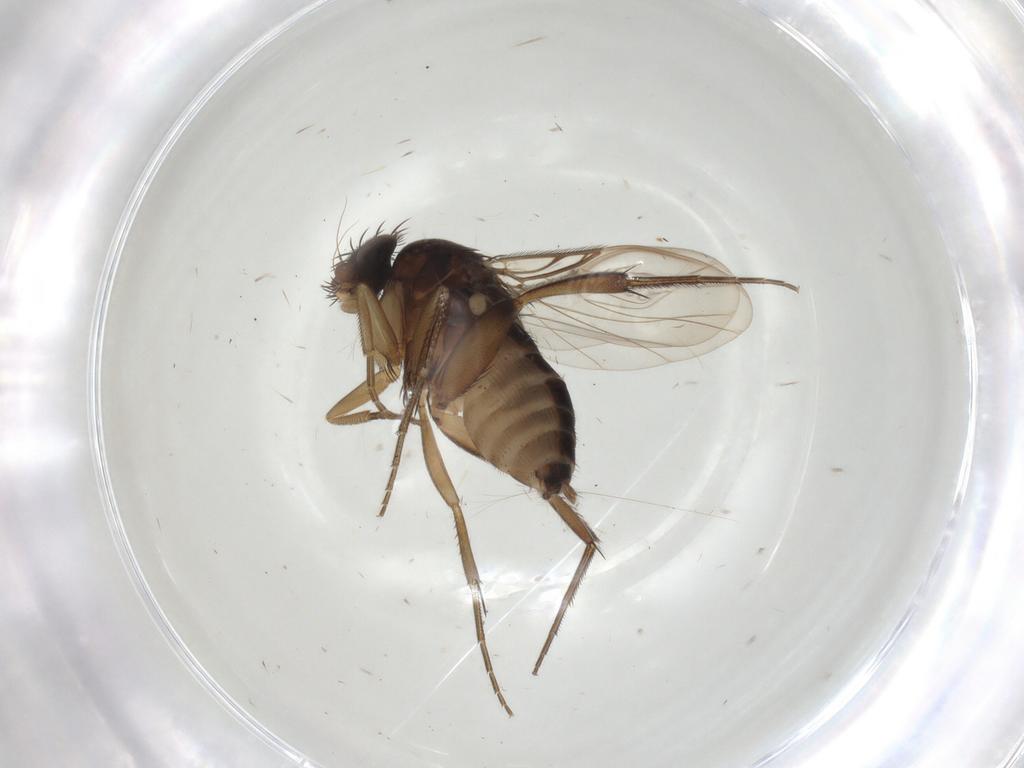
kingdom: Animalia
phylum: Arthropoda
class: Insecta
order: Diptera
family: Phoridae
